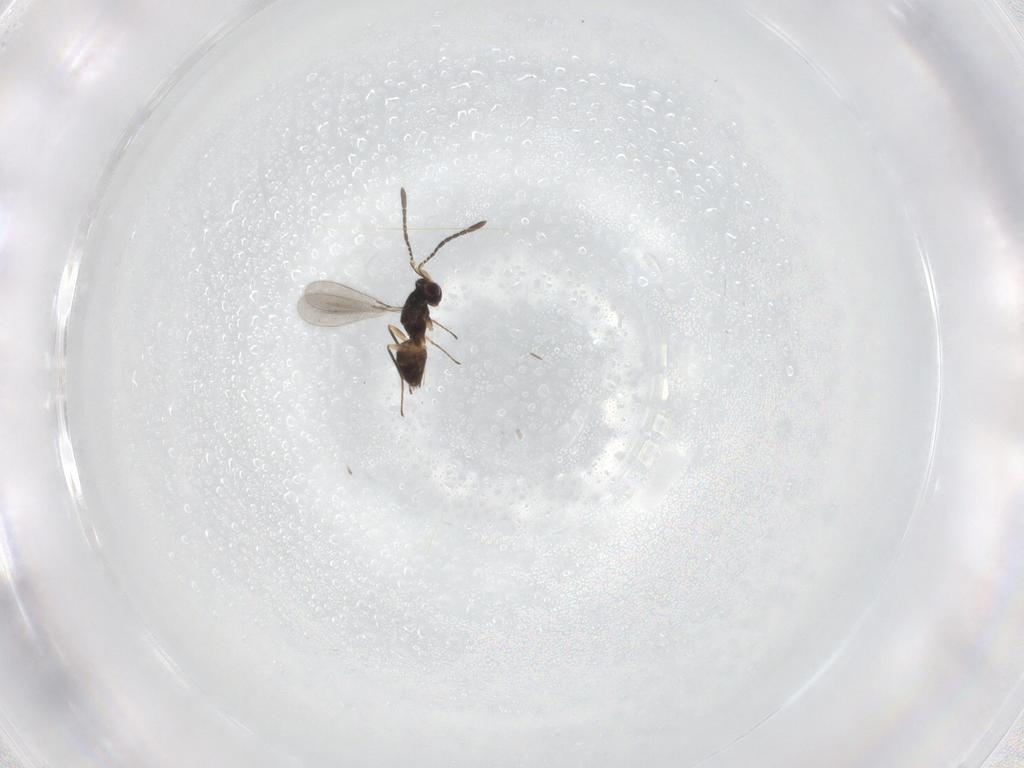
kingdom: Animalia
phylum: Arthropoda
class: Insecta
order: Hymenoptera
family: Mymaridae
